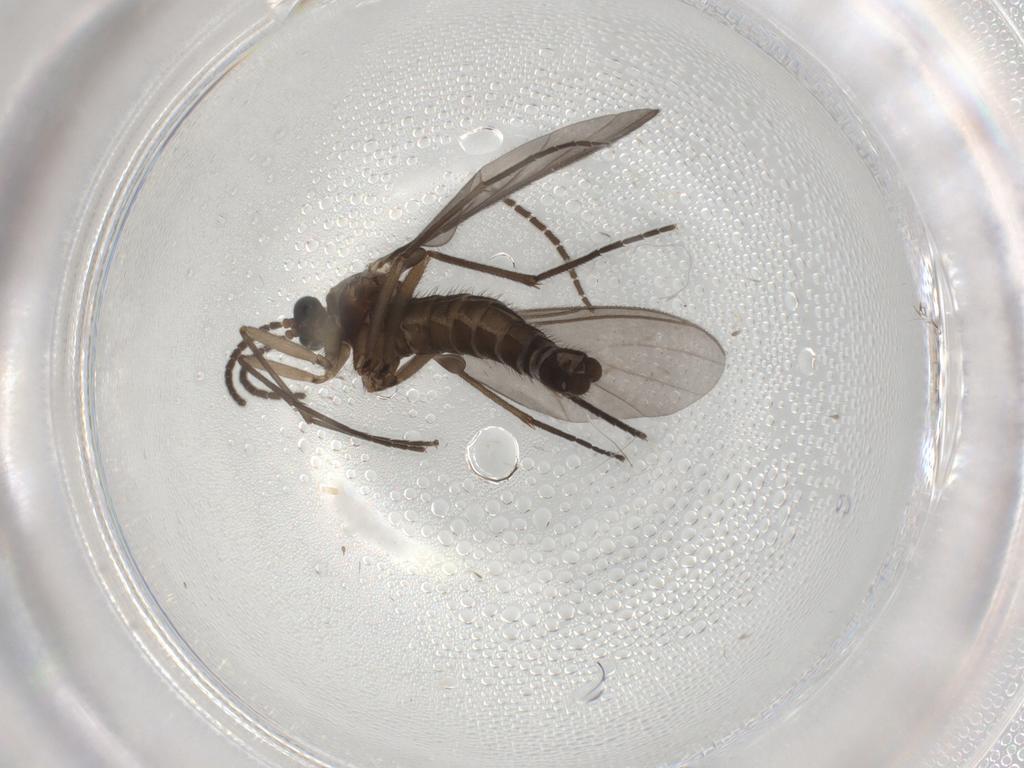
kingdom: Animalia
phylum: Arthropoda
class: Insecta
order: Diptera
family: Sciaridae
